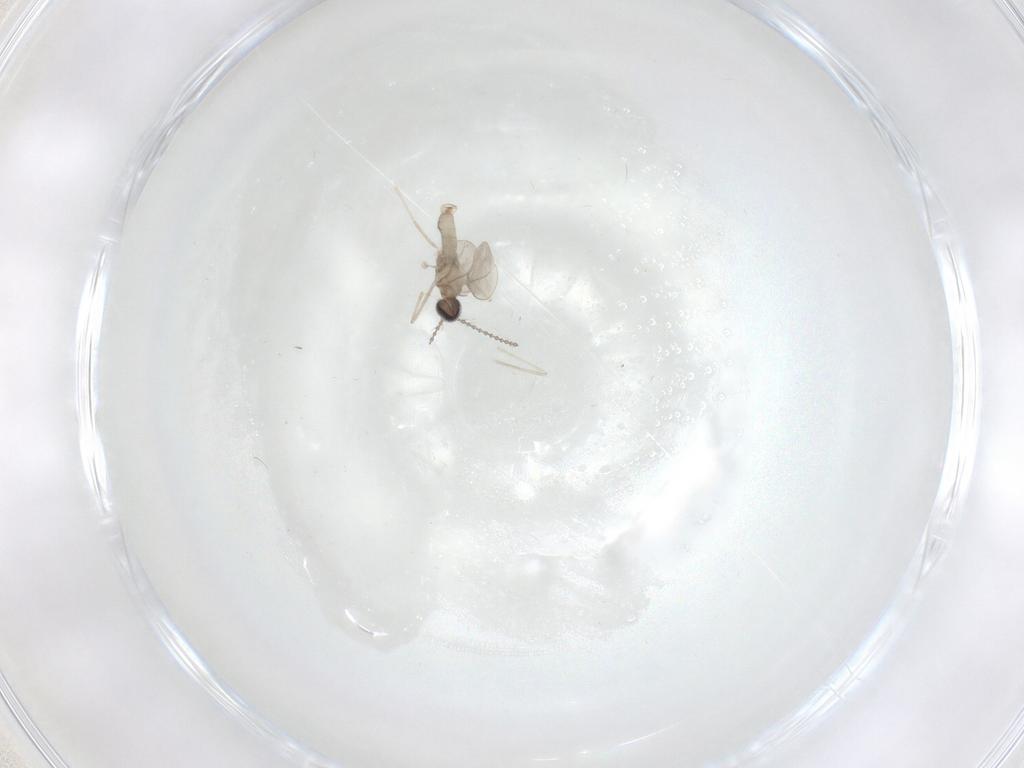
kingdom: Animalia
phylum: Arthropoda
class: Insecta
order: Diptera
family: Cecidomyiidae
